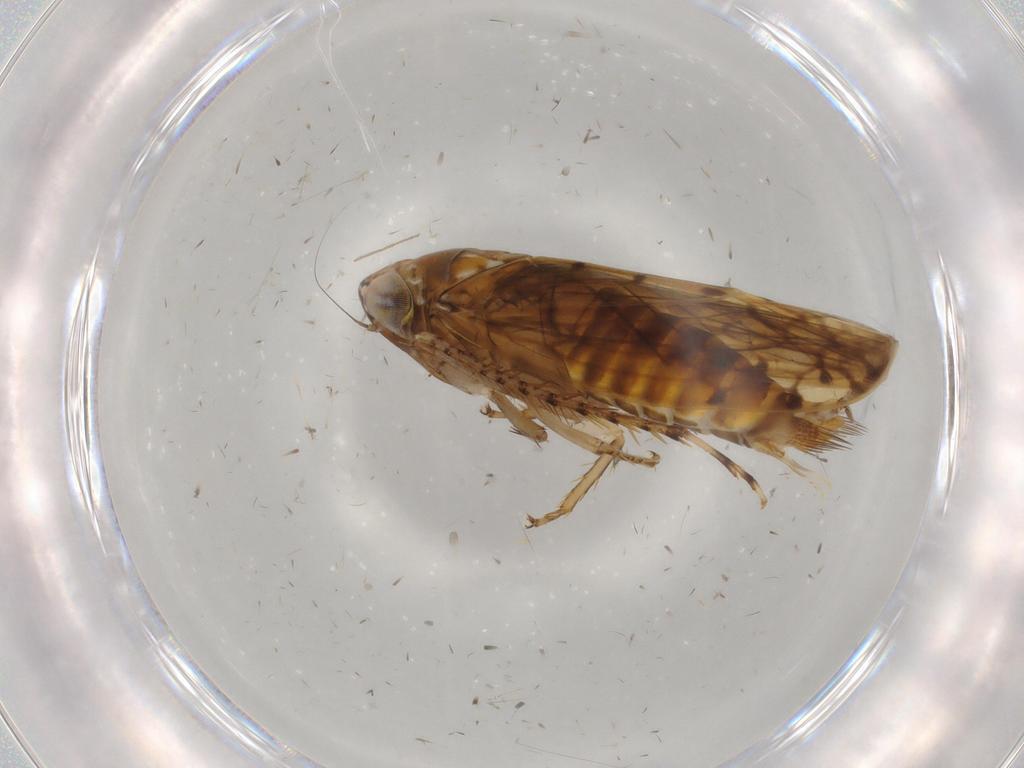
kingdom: Animalia
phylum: Arthropoda
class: Insecta
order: Hemiptera
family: Cicadellidae
